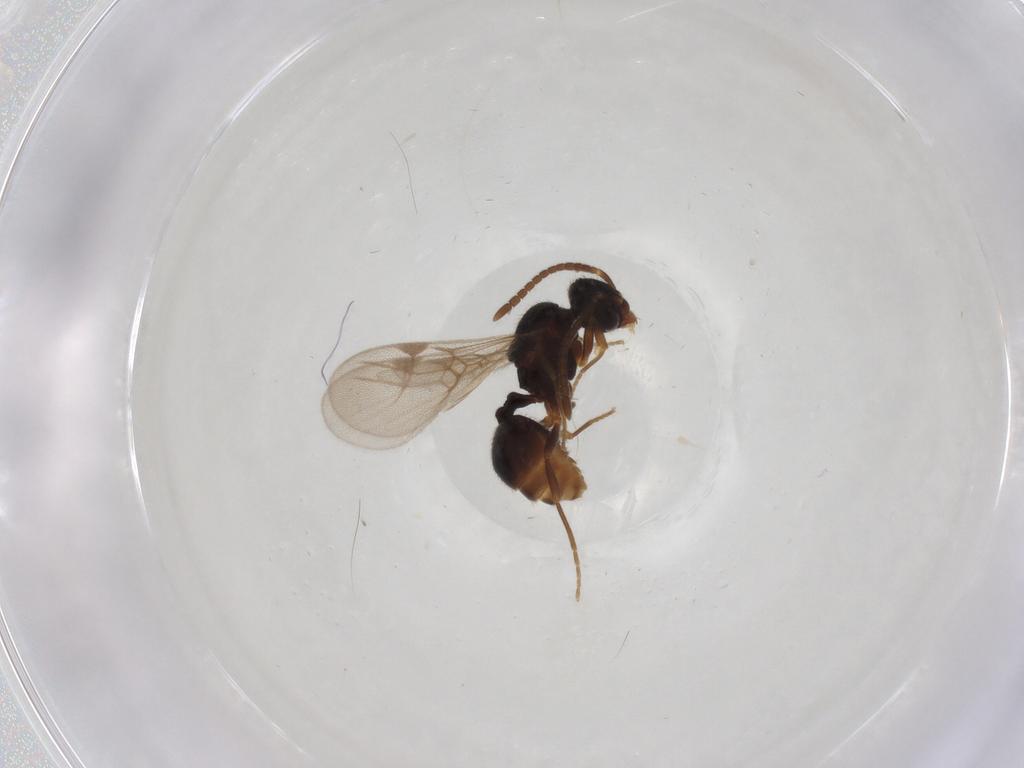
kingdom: Animalia
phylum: Arthropoda
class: Insecta
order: Hymenoptera
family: Formicidae
